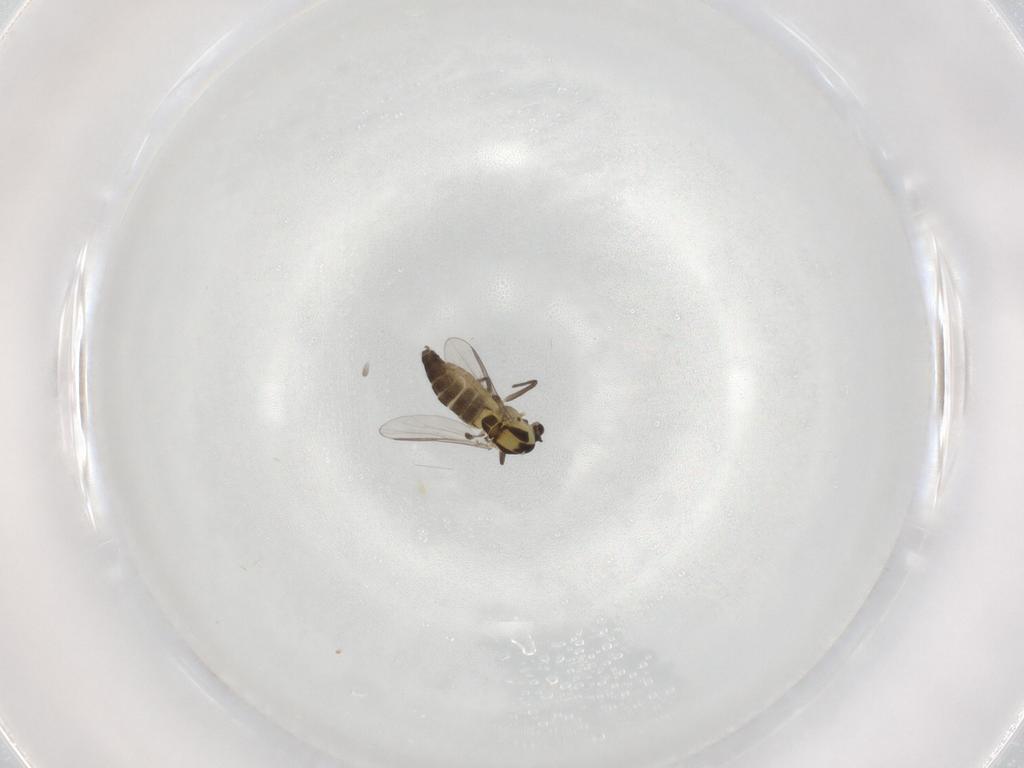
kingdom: Animalia
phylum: Arthropoda
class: Insecta
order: Diptera
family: Chironomidae
